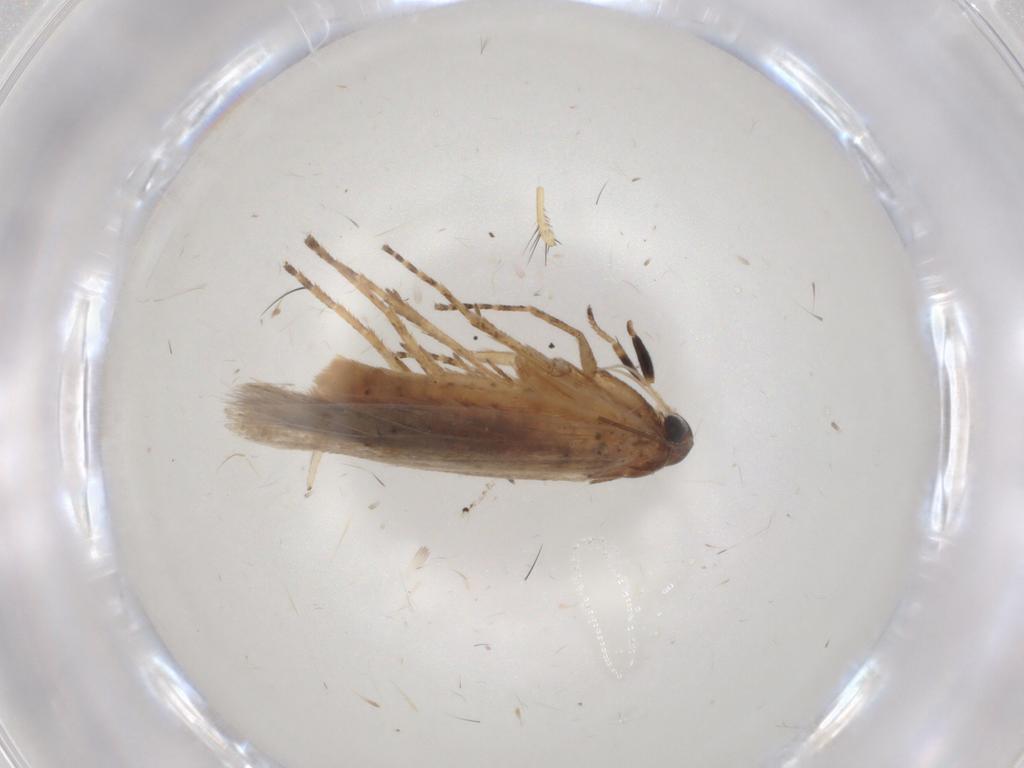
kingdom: Animalia
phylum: Arthropoda
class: Insecta
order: Lepidoptera
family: Gelechiidae
